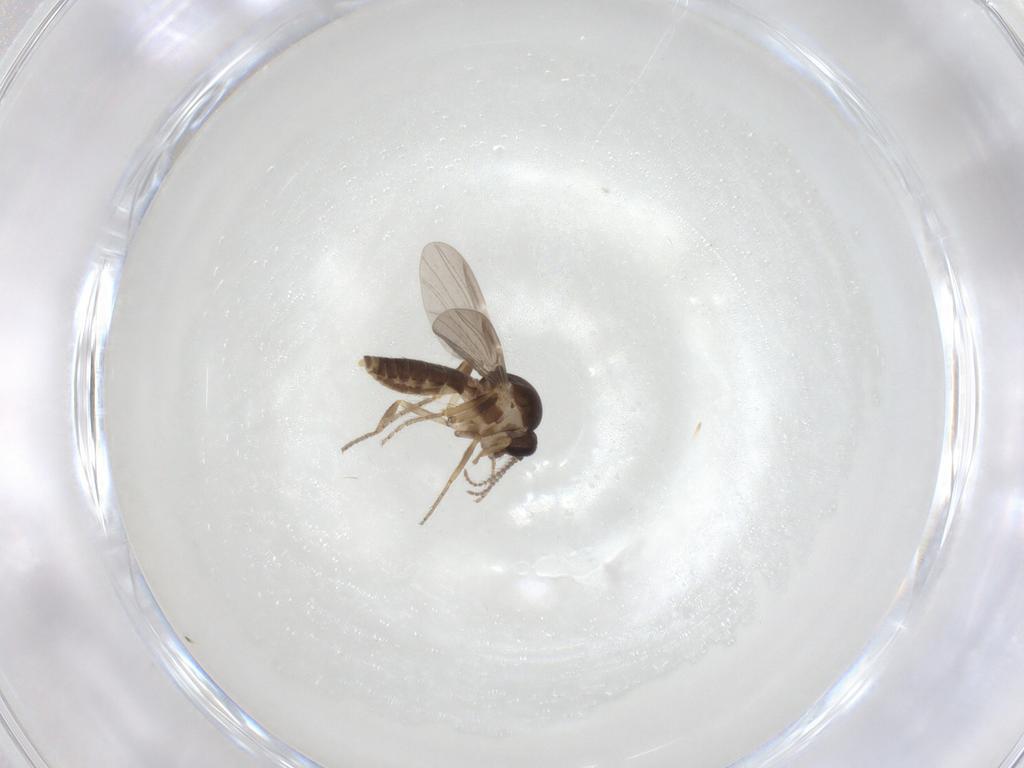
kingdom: Animalia
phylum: Arthropoda
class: Insecta
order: Diptera
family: Ceratopogonidae
